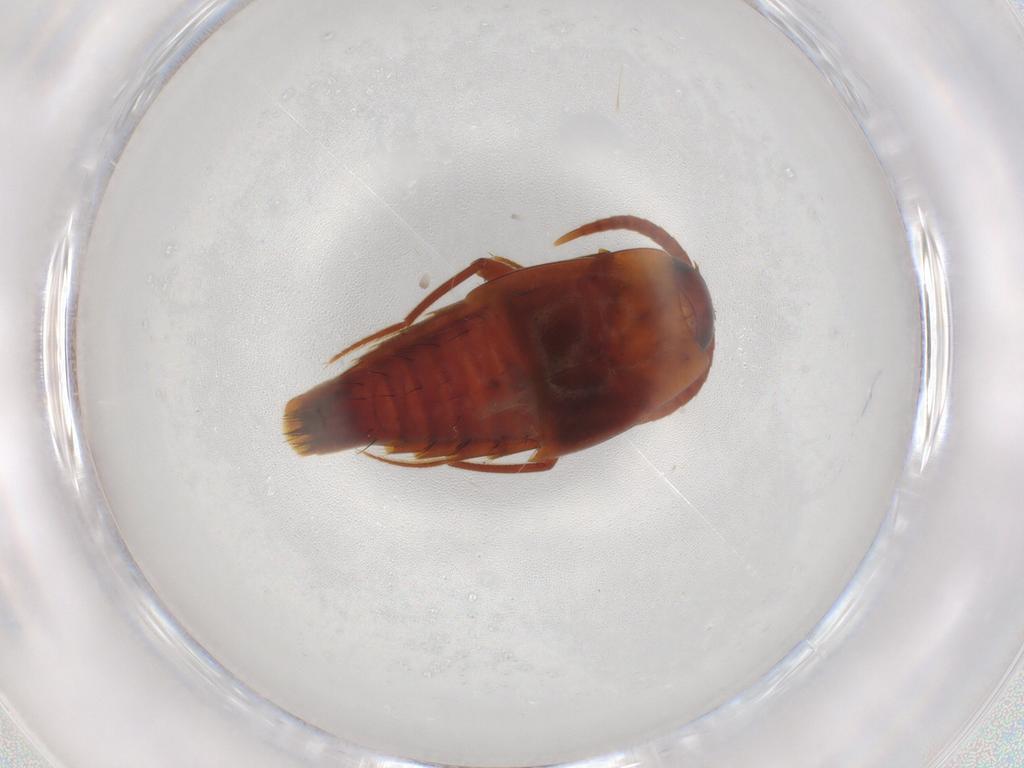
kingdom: Animalia
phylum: Arthropoda
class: Insecta
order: Coleoptera
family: Staphylinidae
